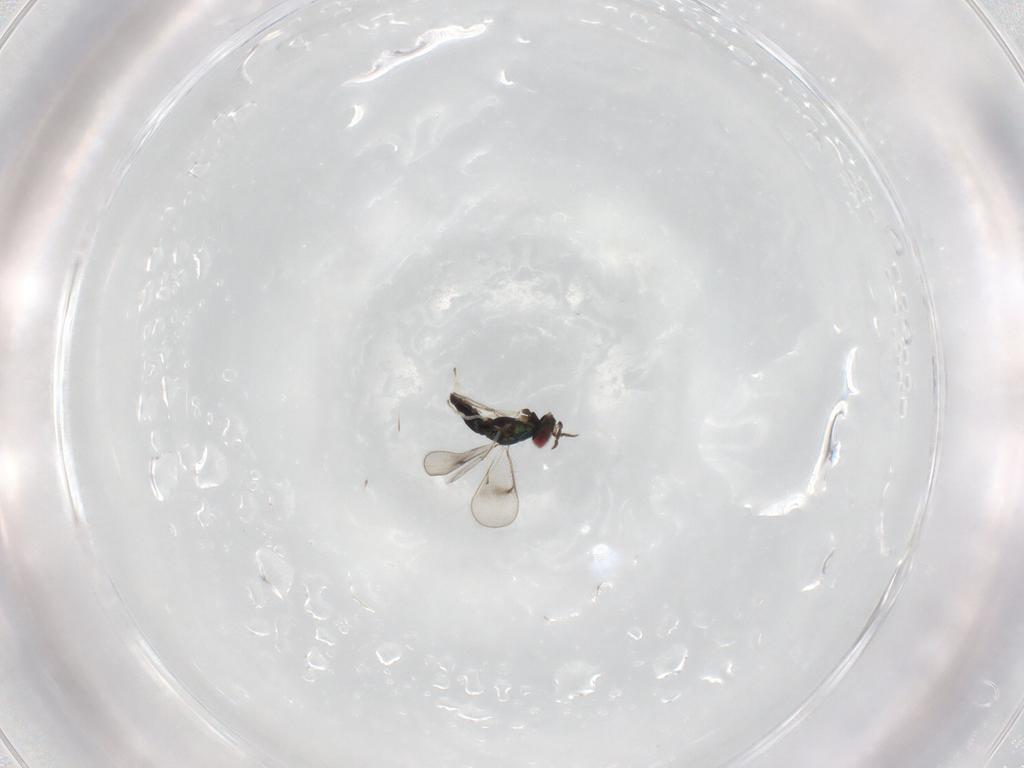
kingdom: Animalia
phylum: Arthropoda
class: Insecta
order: Hymenoptera
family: Eulophidae
